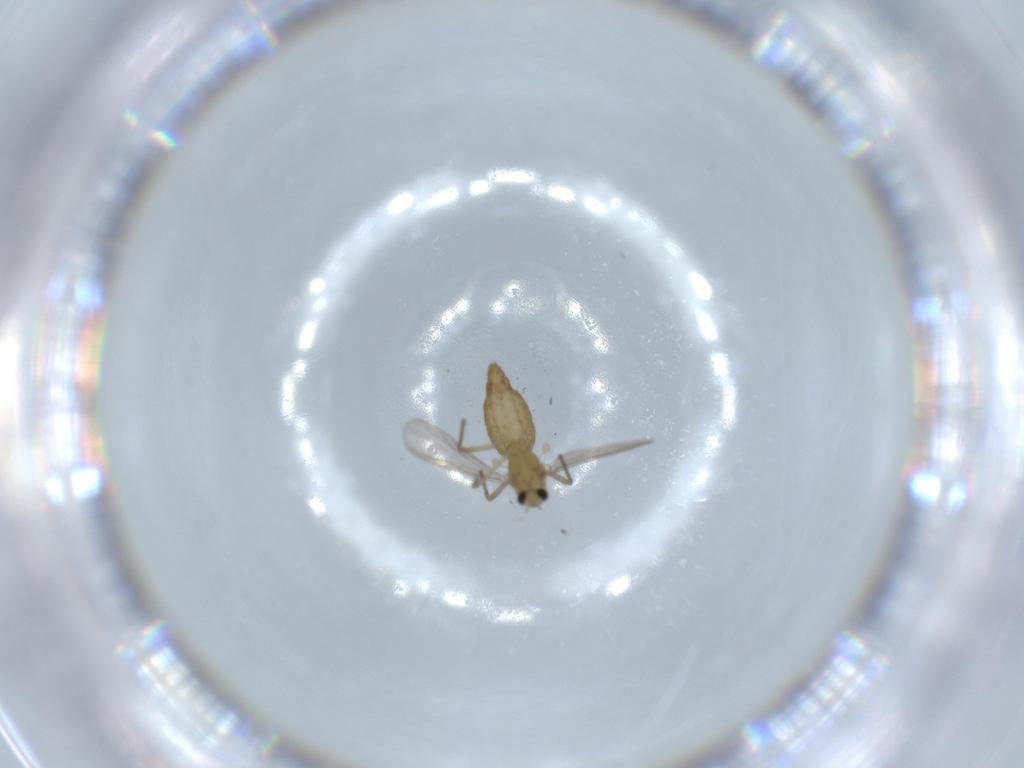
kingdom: Animalia
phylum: Arthropoda
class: Insecta
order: Diptera
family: Chironomidae
